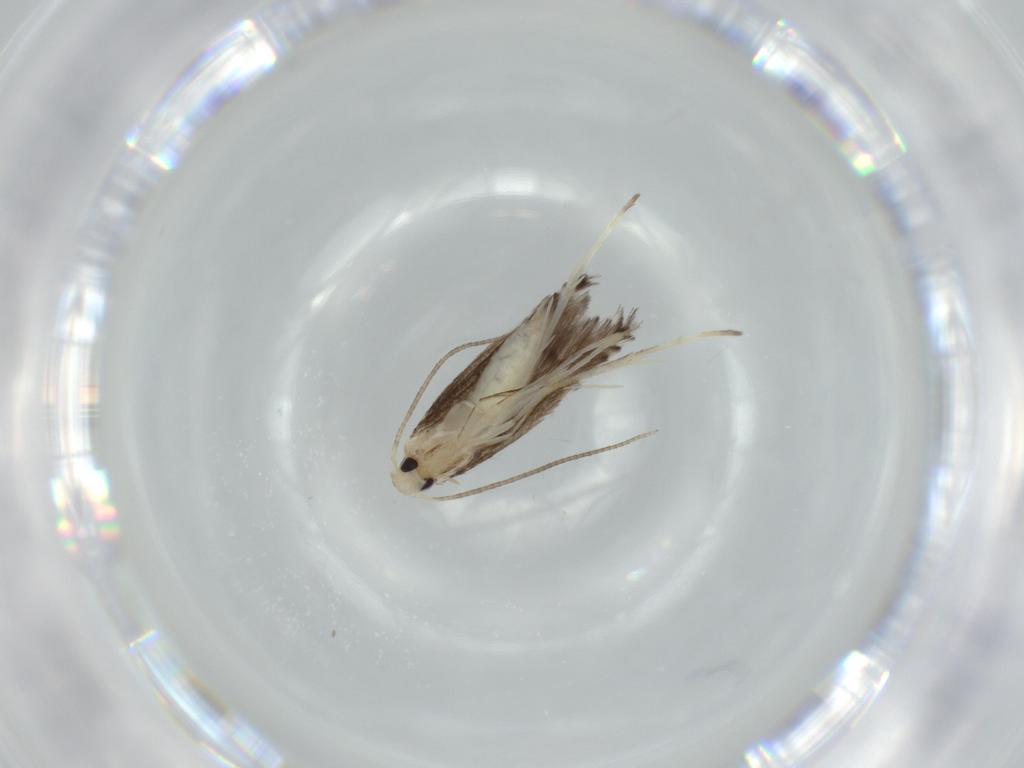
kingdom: Animalia
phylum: Arthropoda
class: Insecta
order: Lepidoptera
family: Gracillariidae
